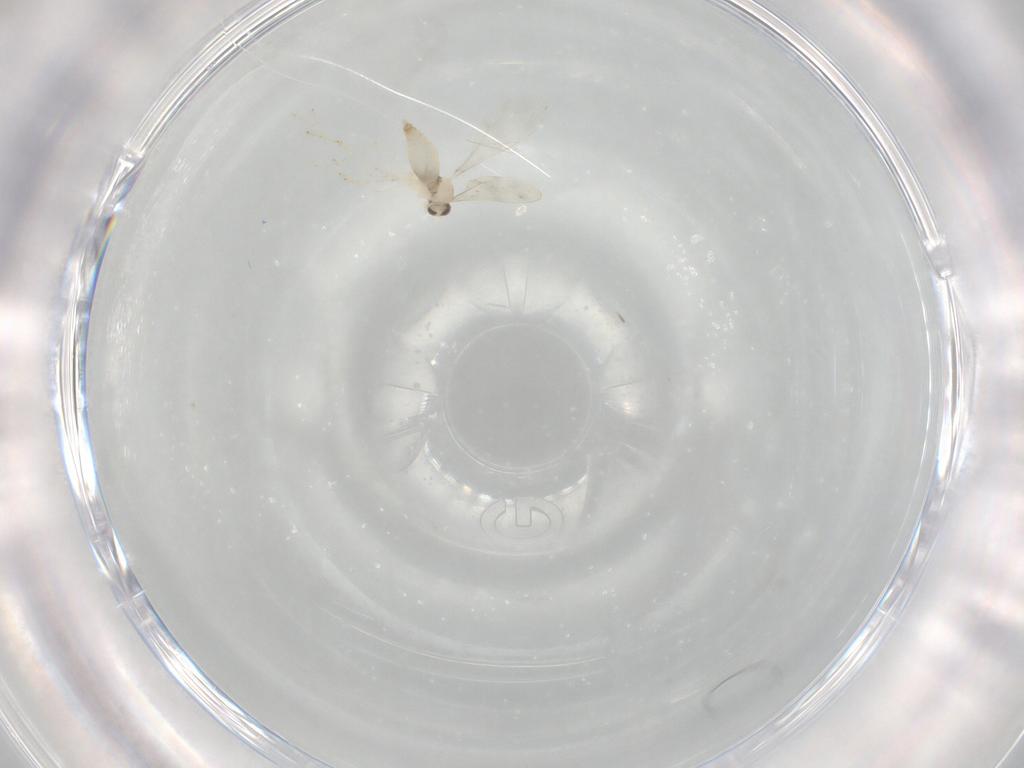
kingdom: Animalia
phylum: Arthropoda
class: Insecta
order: Diptera
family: Cecidomyiidae
